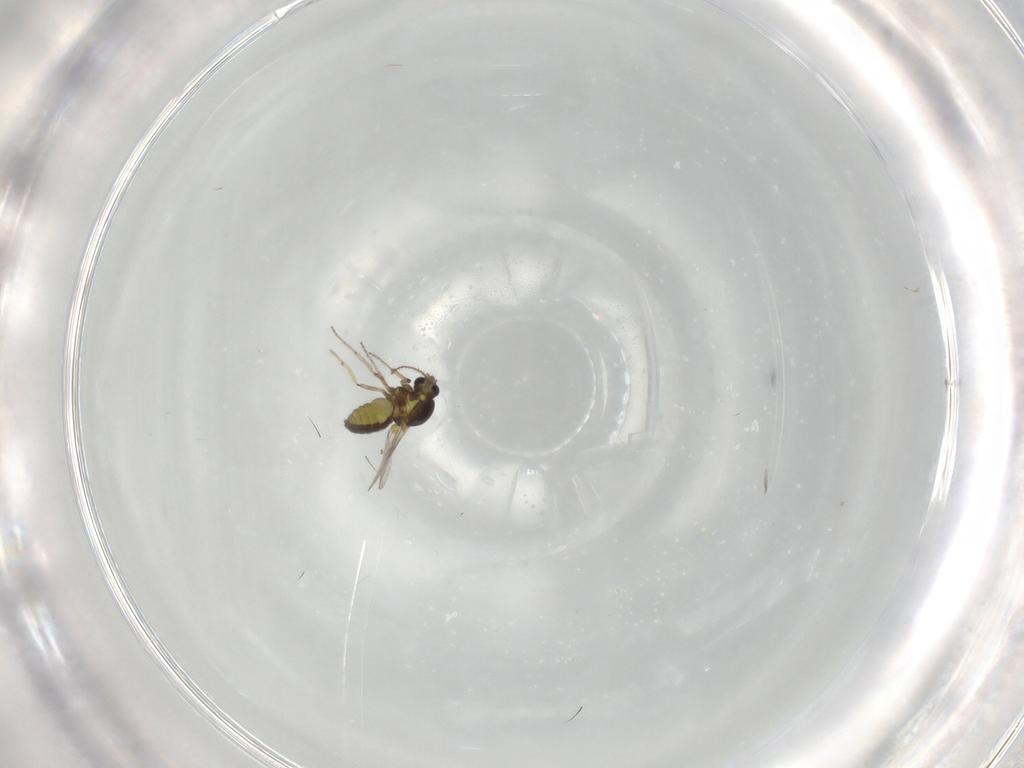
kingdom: Animalia
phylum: Arthropoda
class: Insecta
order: Diptera
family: Ceratopogonidae
